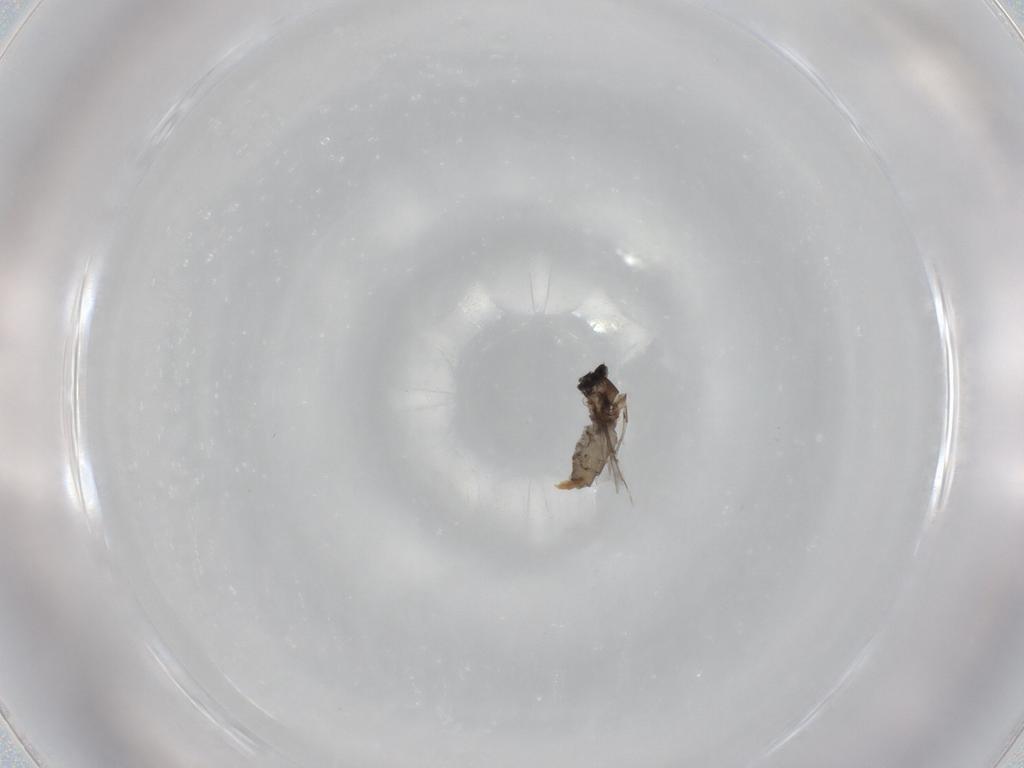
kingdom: Animalia
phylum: Arthropoda
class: Insecta
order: Diptera
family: Cecidomyiidae
